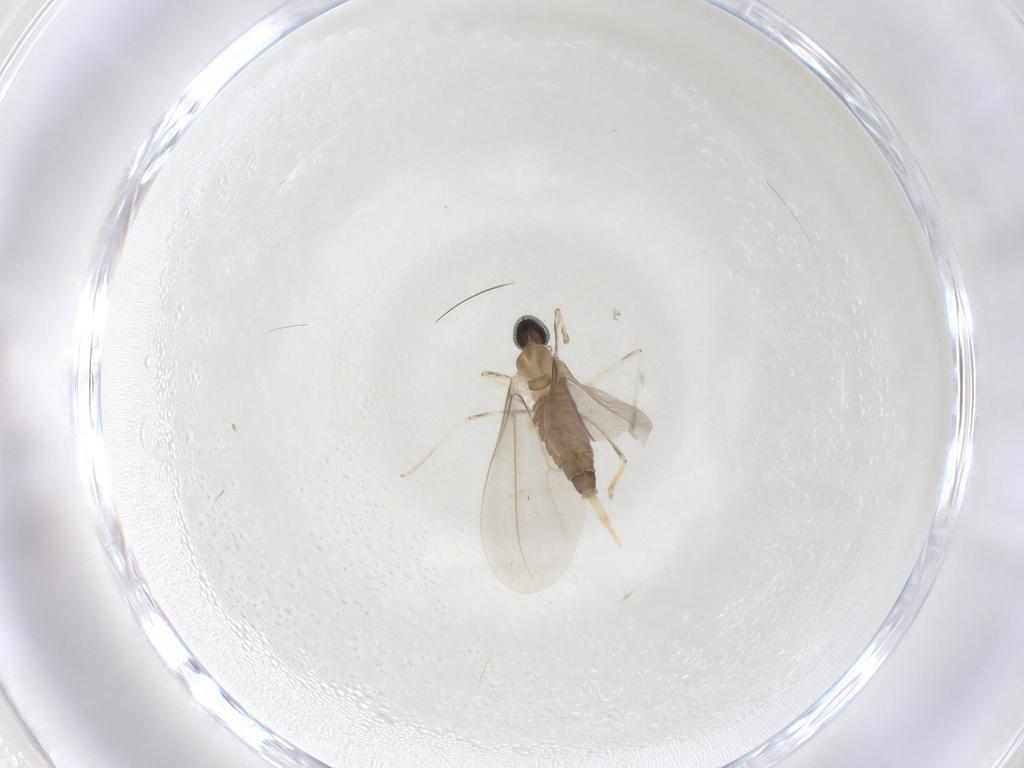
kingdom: Animalia
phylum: Arthropoda
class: Insecta
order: Diptera
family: Cecidomyiidae
